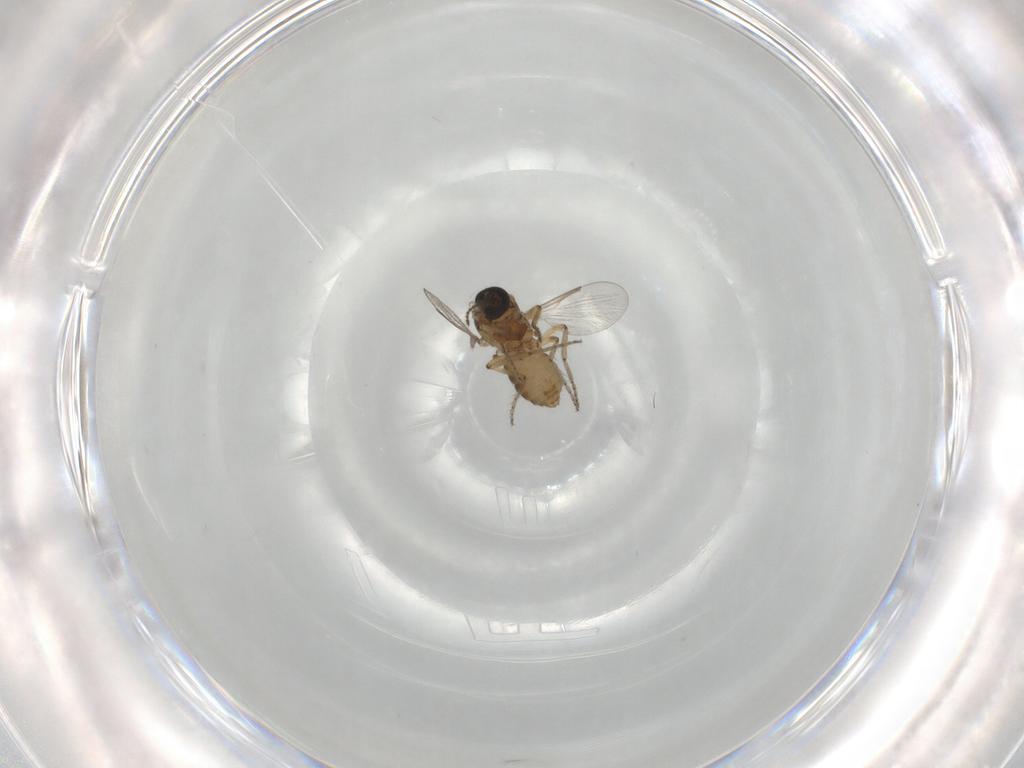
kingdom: Animalia
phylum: Arthropoda
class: Insecta
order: Diptera
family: Ceratopogonidae
